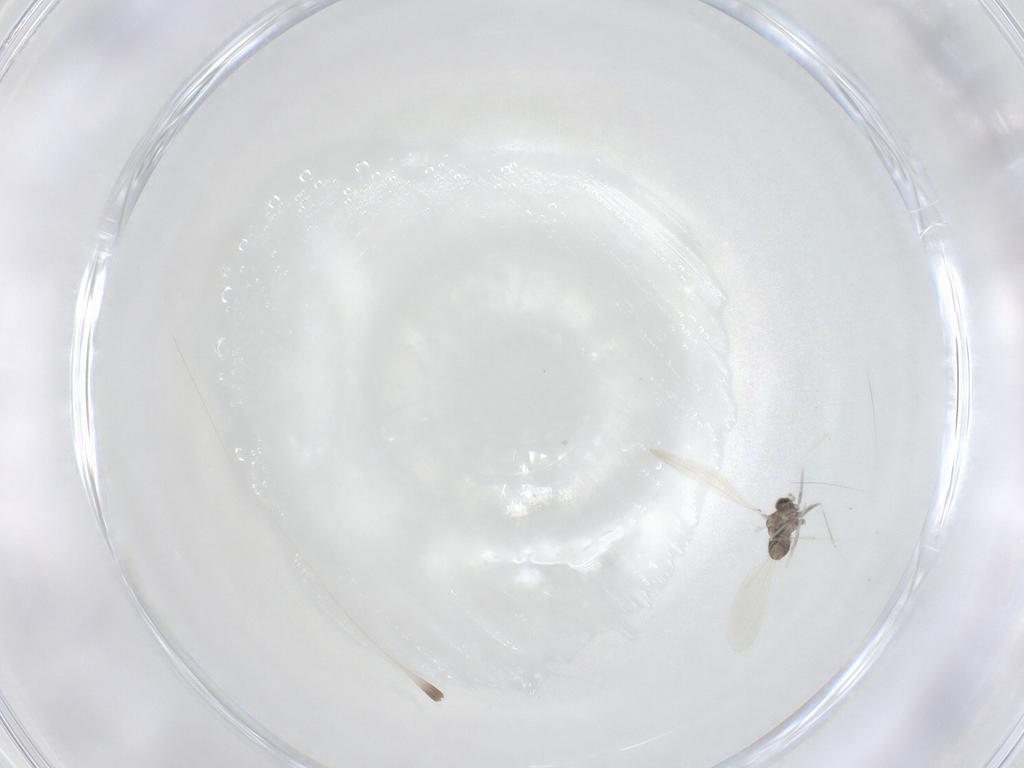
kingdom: Animalia
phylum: Arthropoda
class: Insecta
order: Diptera
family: Cecidomyiidae
